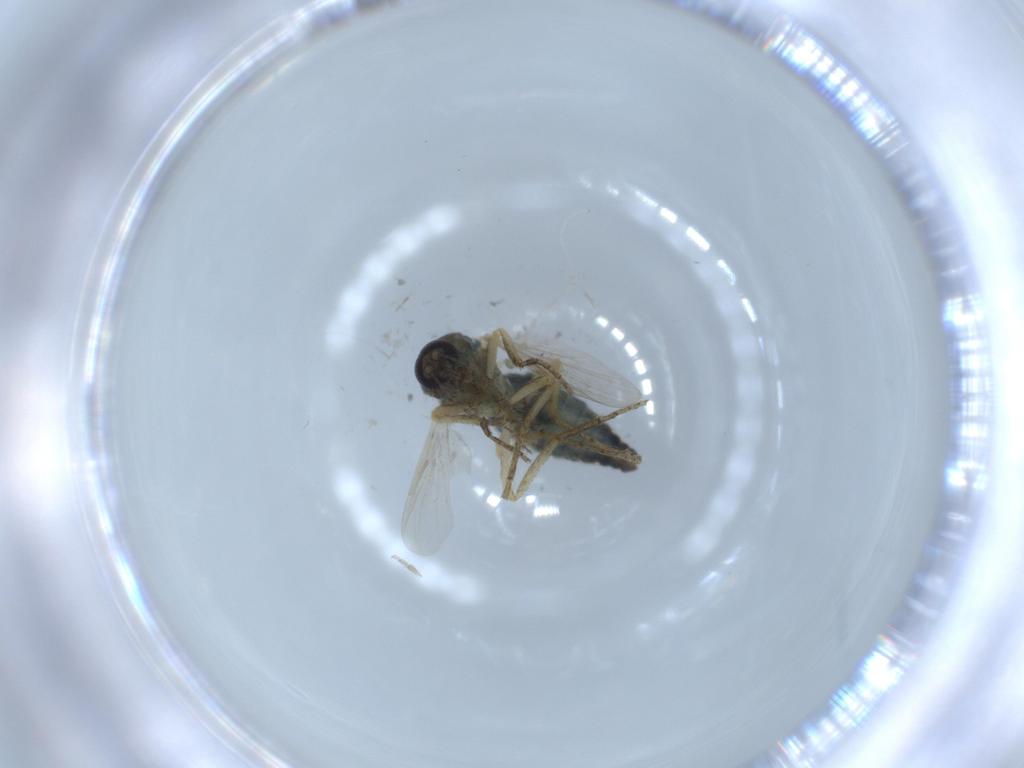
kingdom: Animalia
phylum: Arthropoda
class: Insecta
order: Diptera
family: Ceratopogonidae
